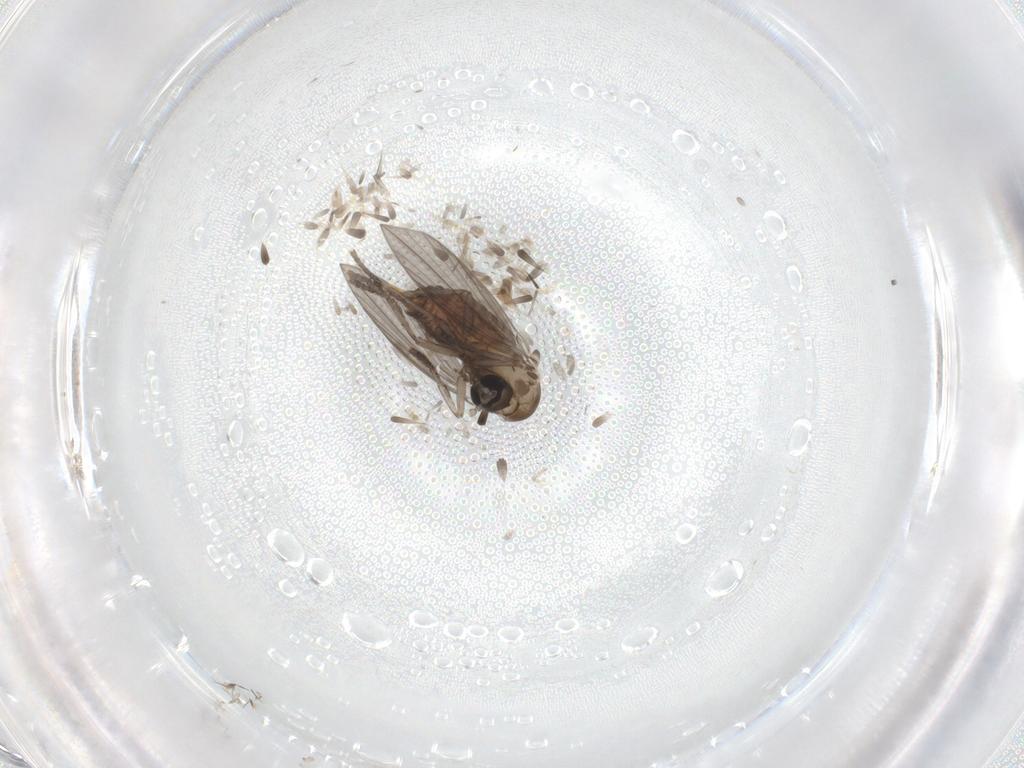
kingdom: Animalia
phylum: Arthropoda
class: Insecta
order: Diptera
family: Psychodidae
